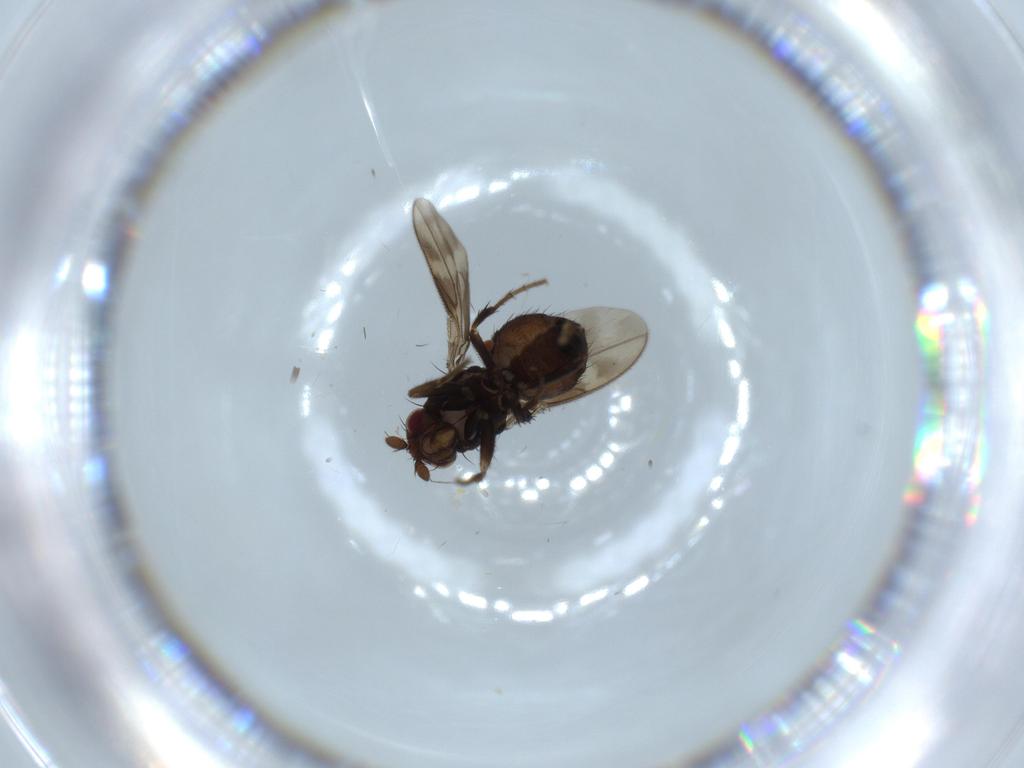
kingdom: Animalia
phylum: Arthropoda
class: Insecta
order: Diptera
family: Sphaeroceridae
